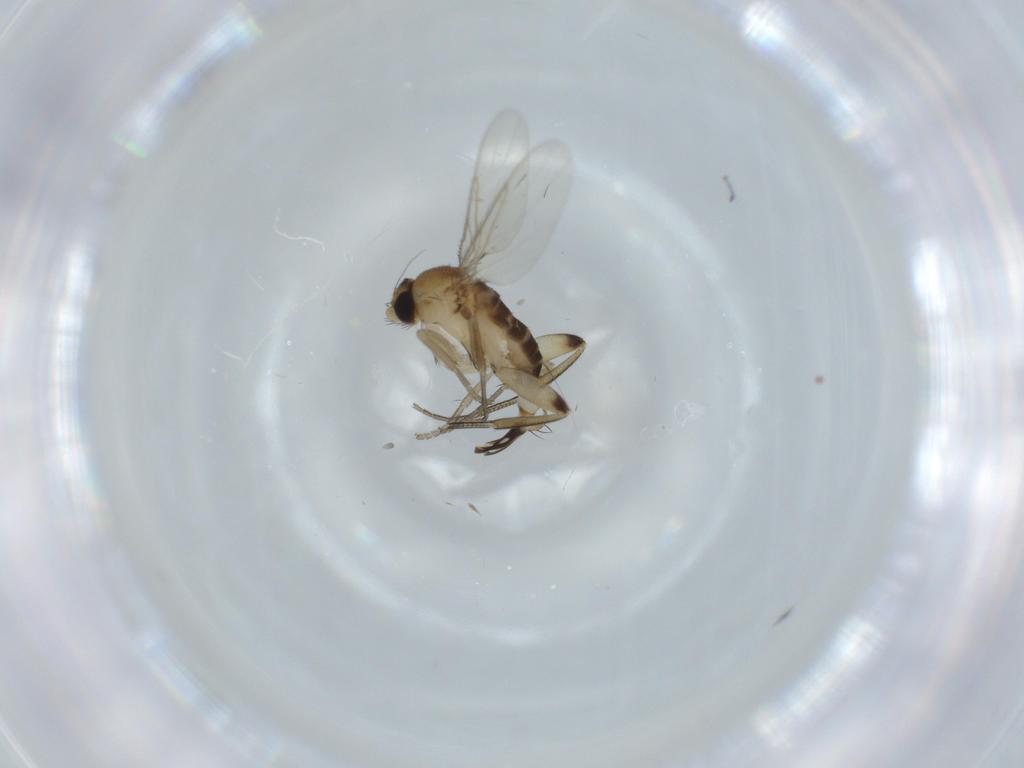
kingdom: Animalia
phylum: Arthropoda
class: Insecta
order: Diptera
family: Phoridae
